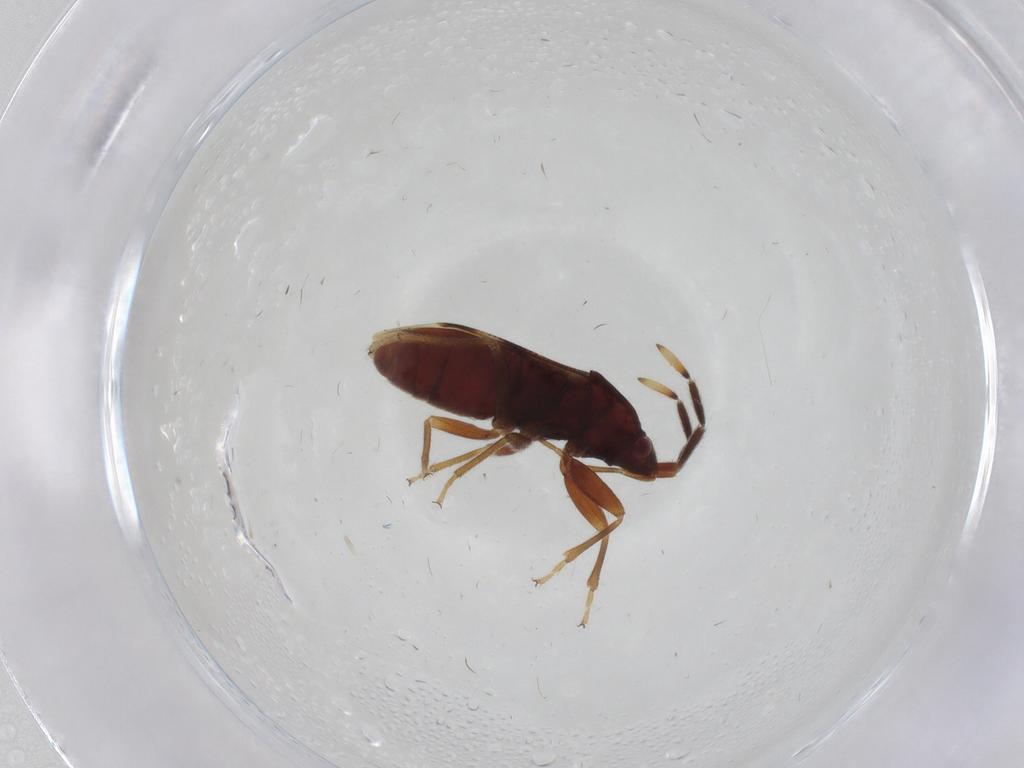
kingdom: Animalia
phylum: Arthropoda
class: Insecta
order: Hemiptera
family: Rhyparochromidae
